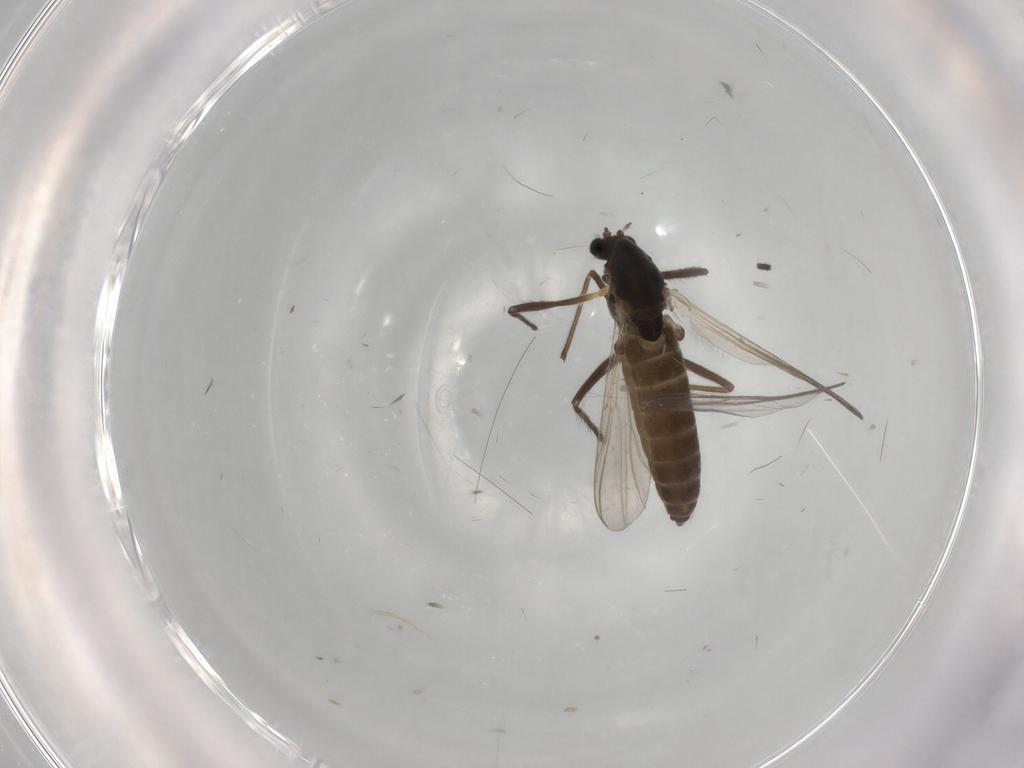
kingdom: Animalia
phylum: Arthropoda
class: Insecta
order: Diptera
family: Chironomidae
